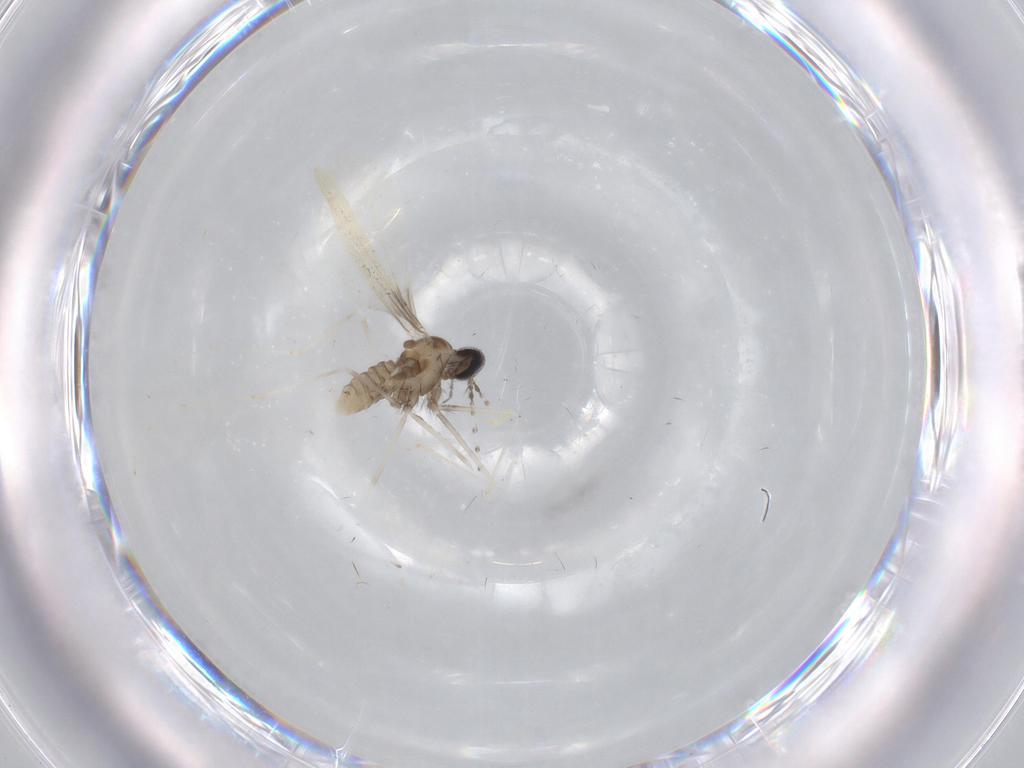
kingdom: Animalia
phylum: Arthropoda
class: Insecta
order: Diptera
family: Cecidomyiidae
